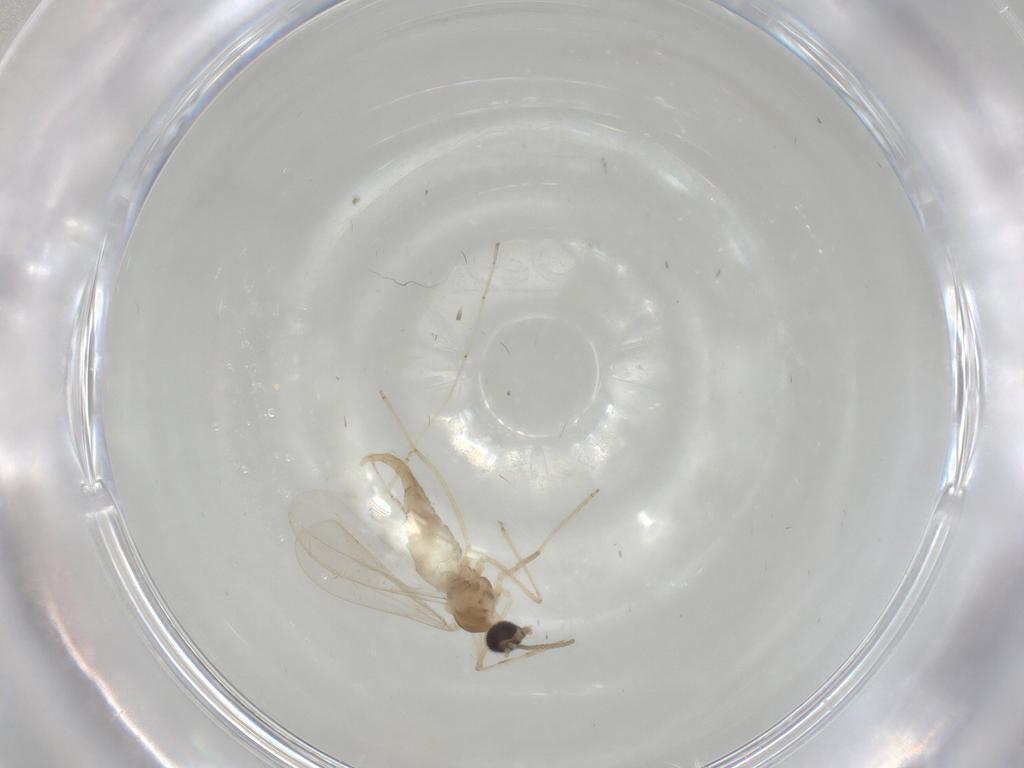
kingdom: Animalia
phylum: Arthropoda
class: Insecta
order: Diptera
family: Cecidomyiidae
